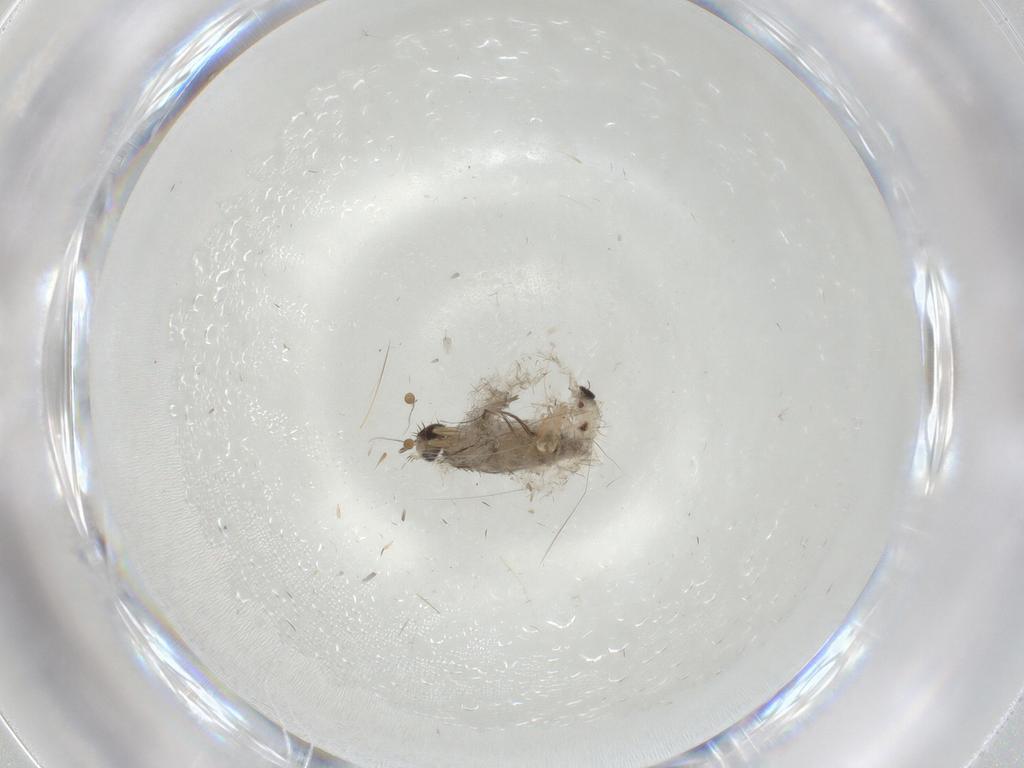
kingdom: Animalia
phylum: Arthropoda
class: Insecta
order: Diptera
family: Phoridae
